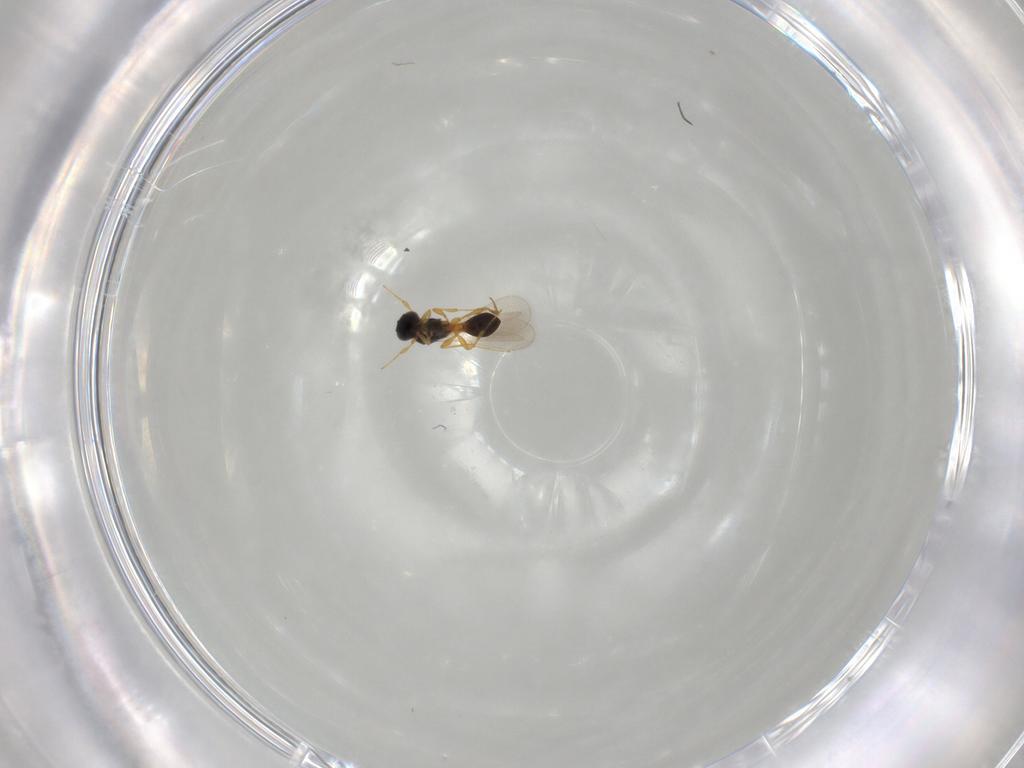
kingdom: Animalia
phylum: Arthropoda
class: Insecta
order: Hymenoptera
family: Platygastridae
